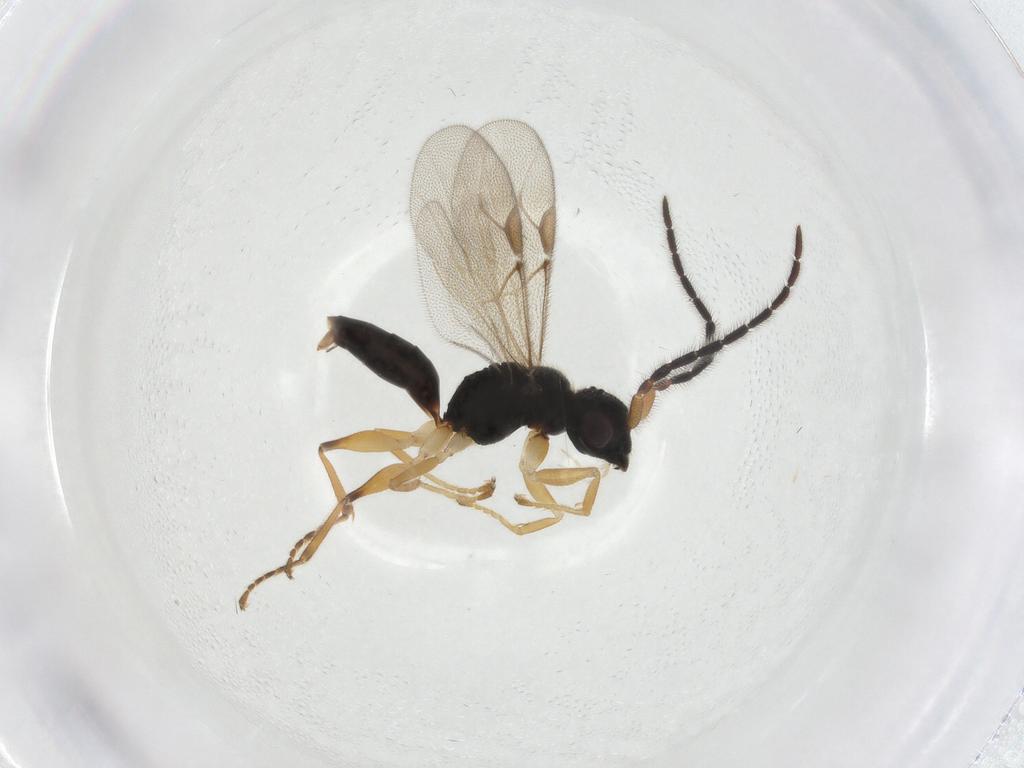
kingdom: Animalia
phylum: Arthropoda
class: Insecta
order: Hymenoptera
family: Dryinidae
